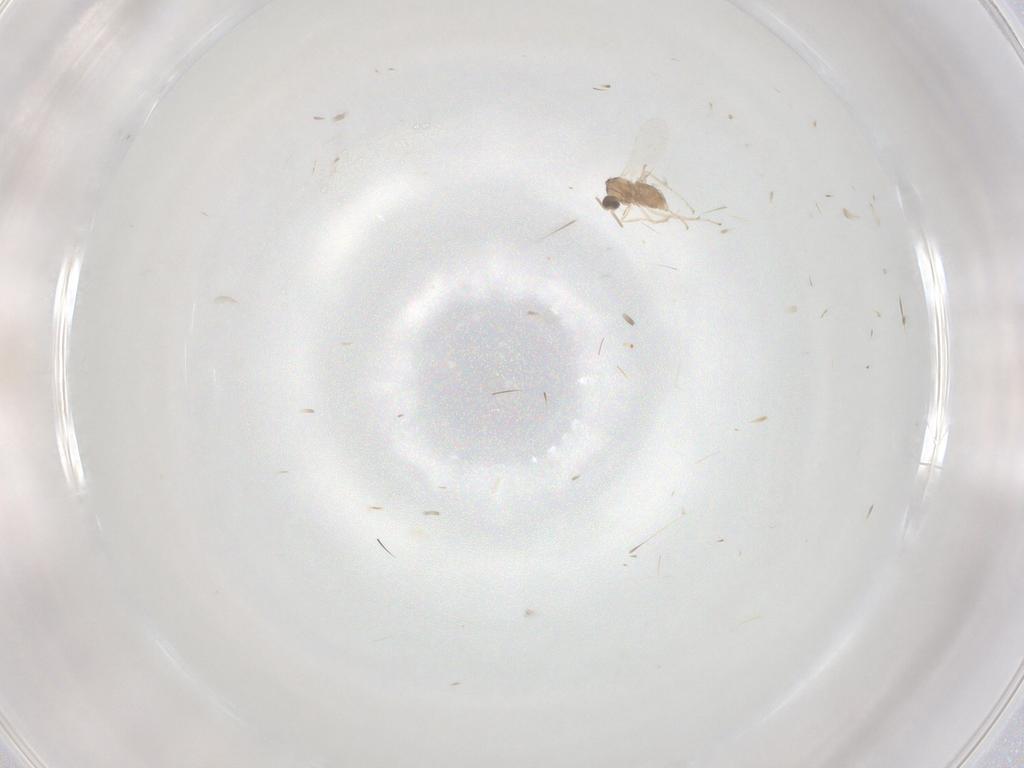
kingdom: Animalia
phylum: Arthropoda
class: Insecta
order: Diptera
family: Cecidomyiidae
